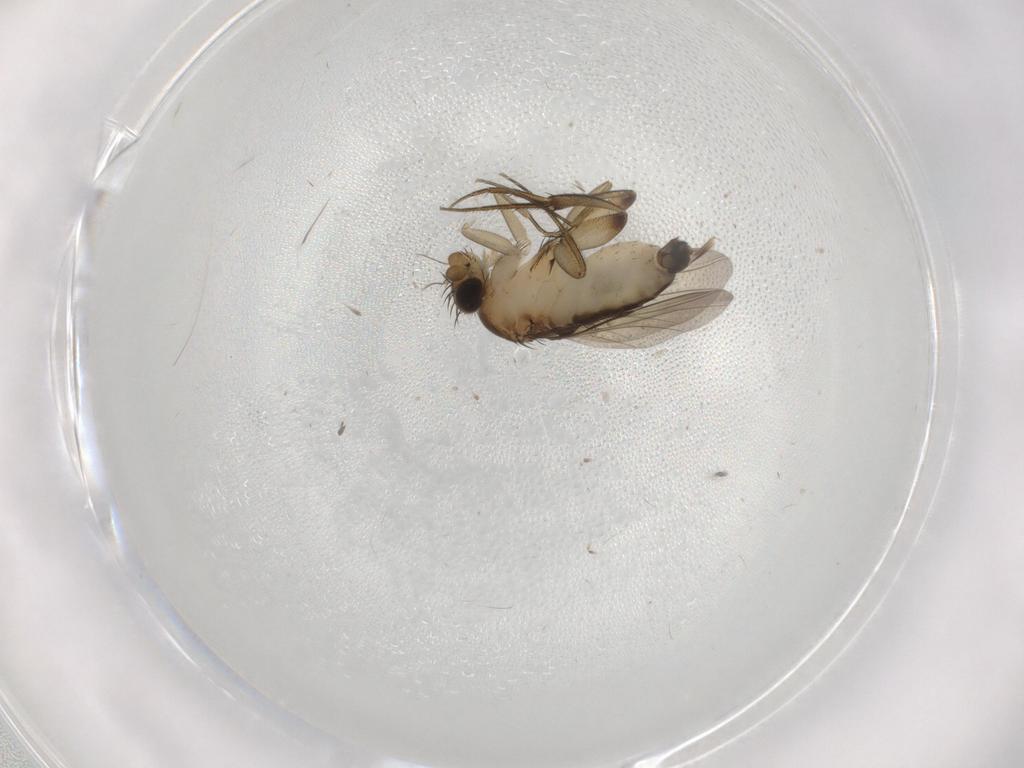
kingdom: Animalia
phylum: Arthropoda
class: Insecta
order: Diptera
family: Phoridae
